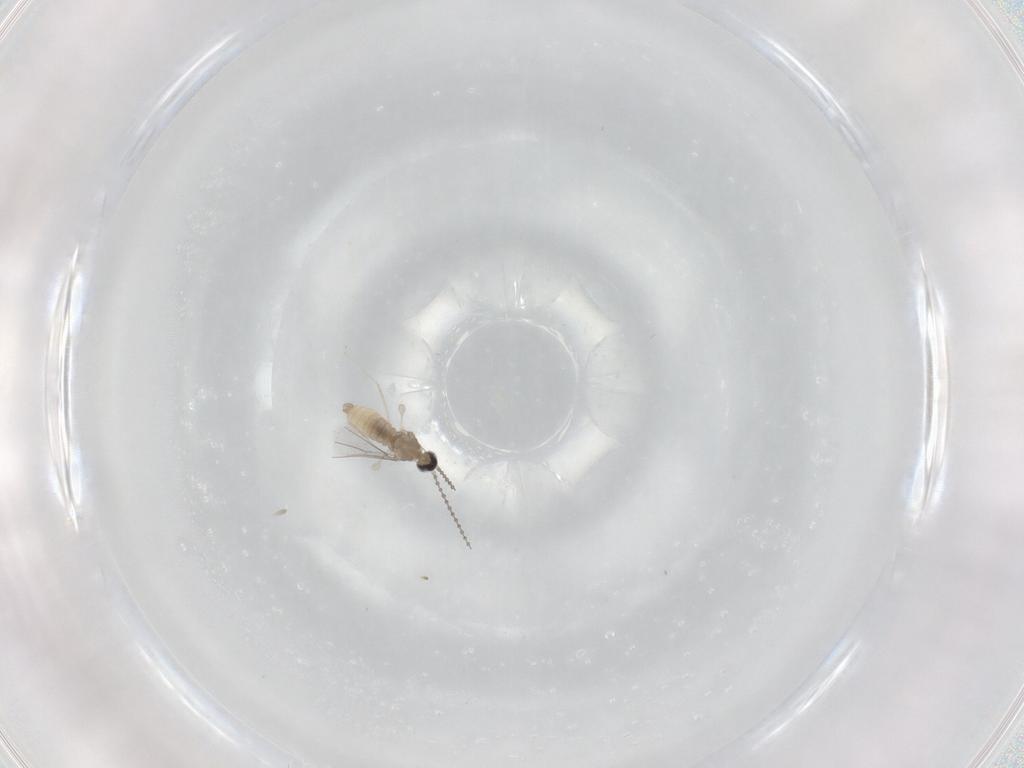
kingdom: Animalia
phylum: Arthropoda
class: Insecta
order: Diptera
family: Cecidomyiidae
